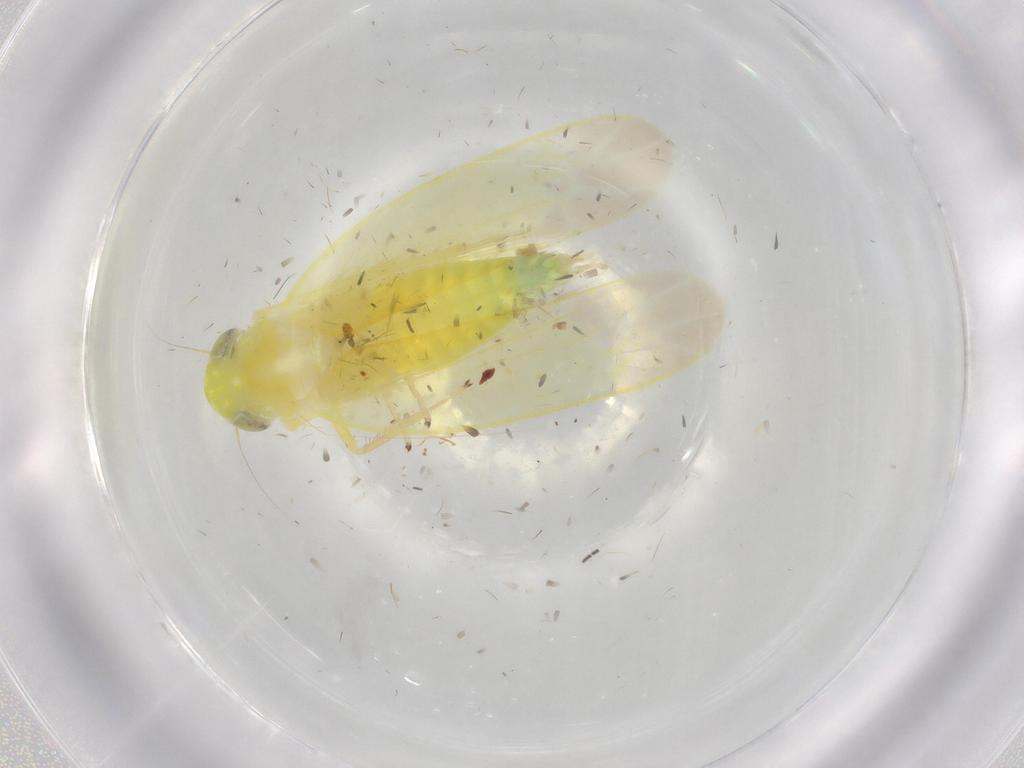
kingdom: Animalia
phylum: Arthropoda
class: Insecta
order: Hemiptera
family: Cicadellidae
